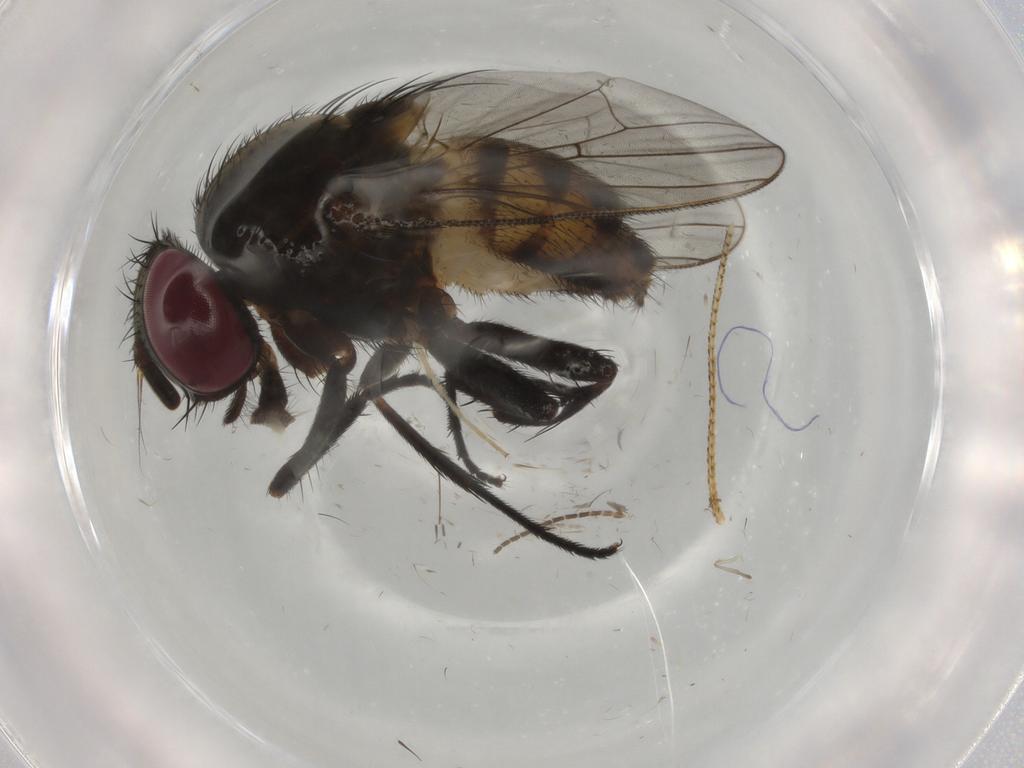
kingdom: Animalia
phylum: Arthropoda
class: Insecta
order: Diptera
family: Fannia
